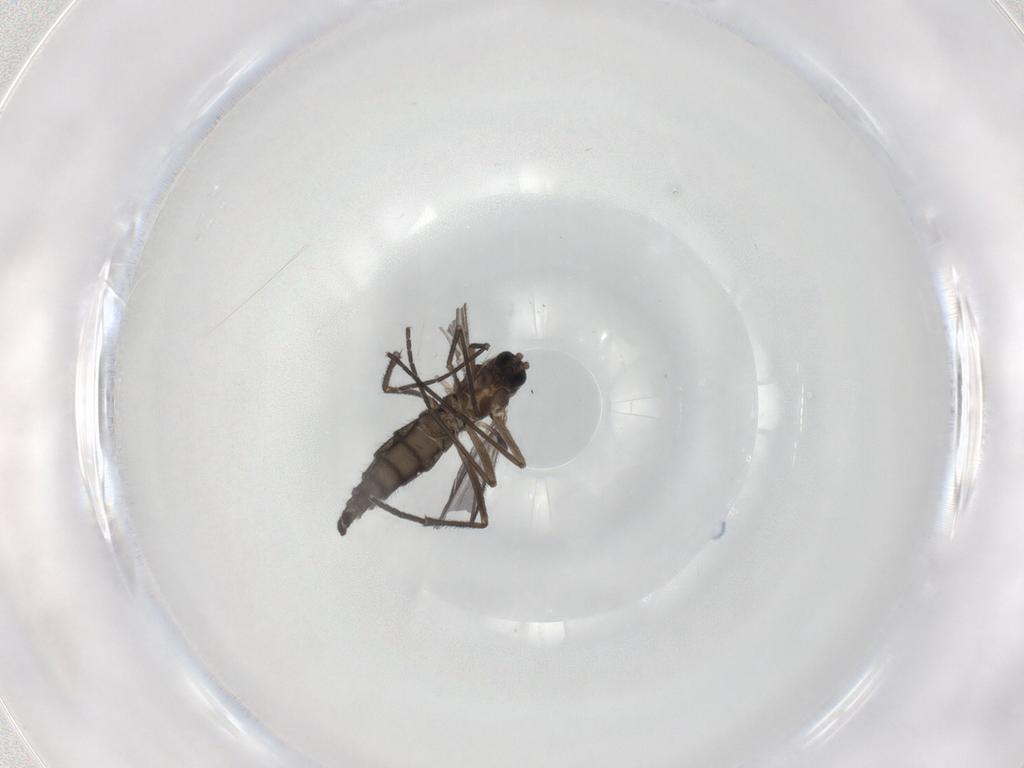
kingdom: Animalia
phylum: Arthropoda
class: Insecta
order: Diptera
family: Sciaridae
